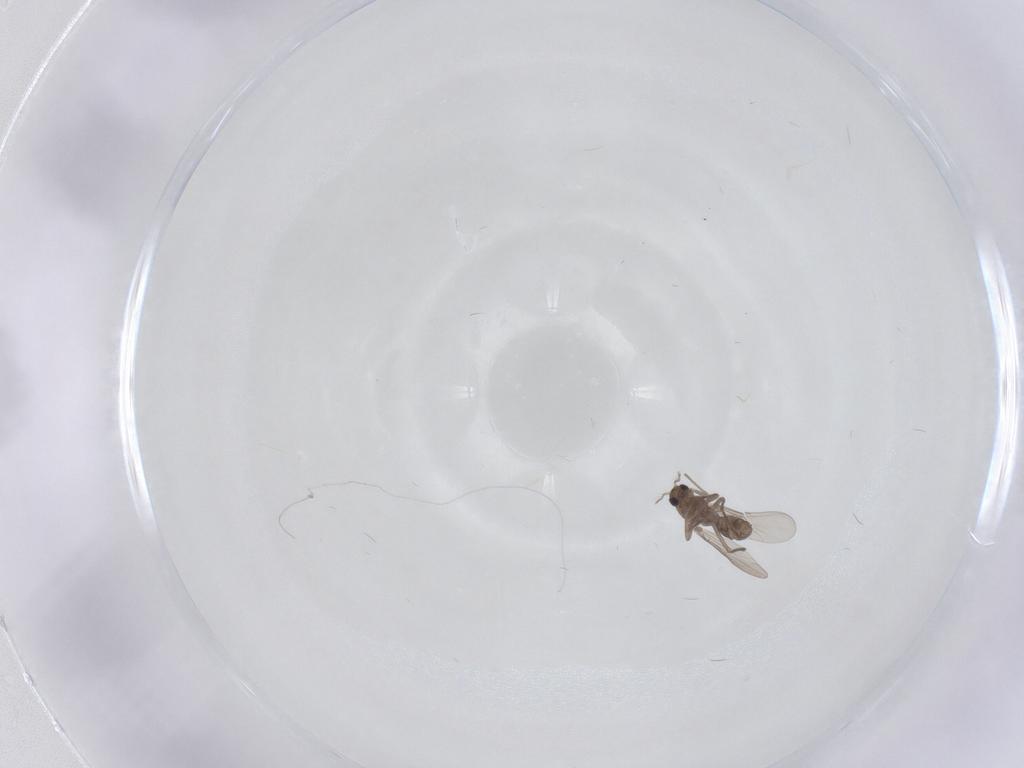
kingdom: Animalia
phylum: Arthropoda
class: Insecta
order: Diptera
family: Chironomidae
